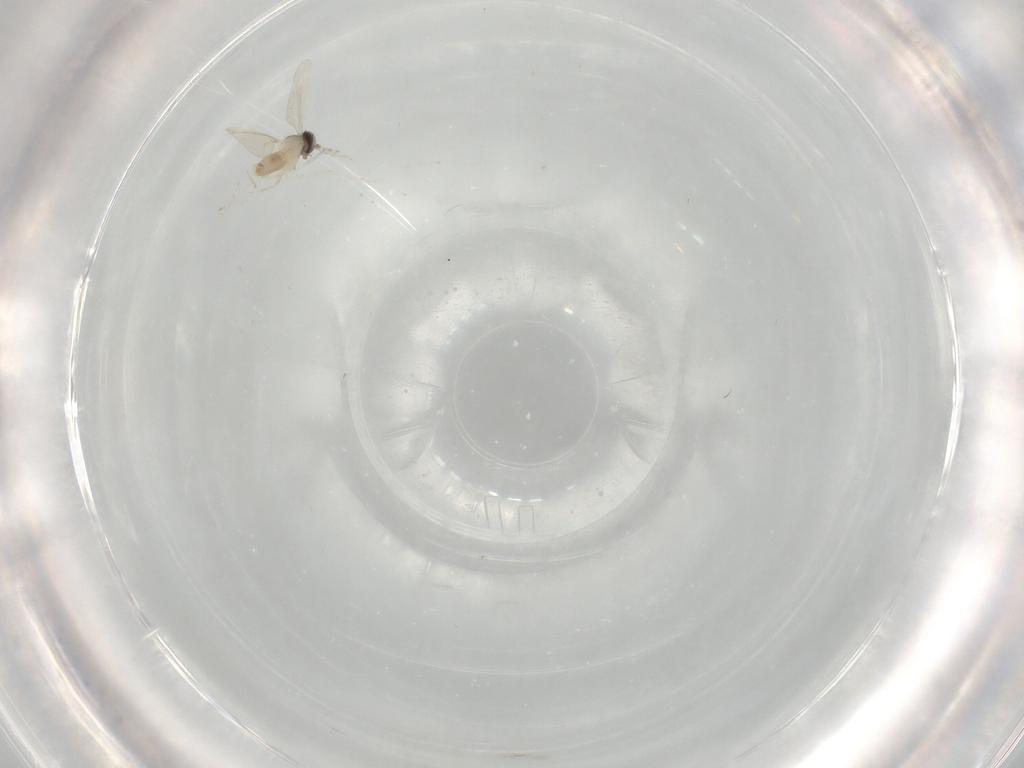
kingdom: Animalia
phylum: Arthropoda
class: Insecta
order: Diptera
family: Cecidomyiidae
